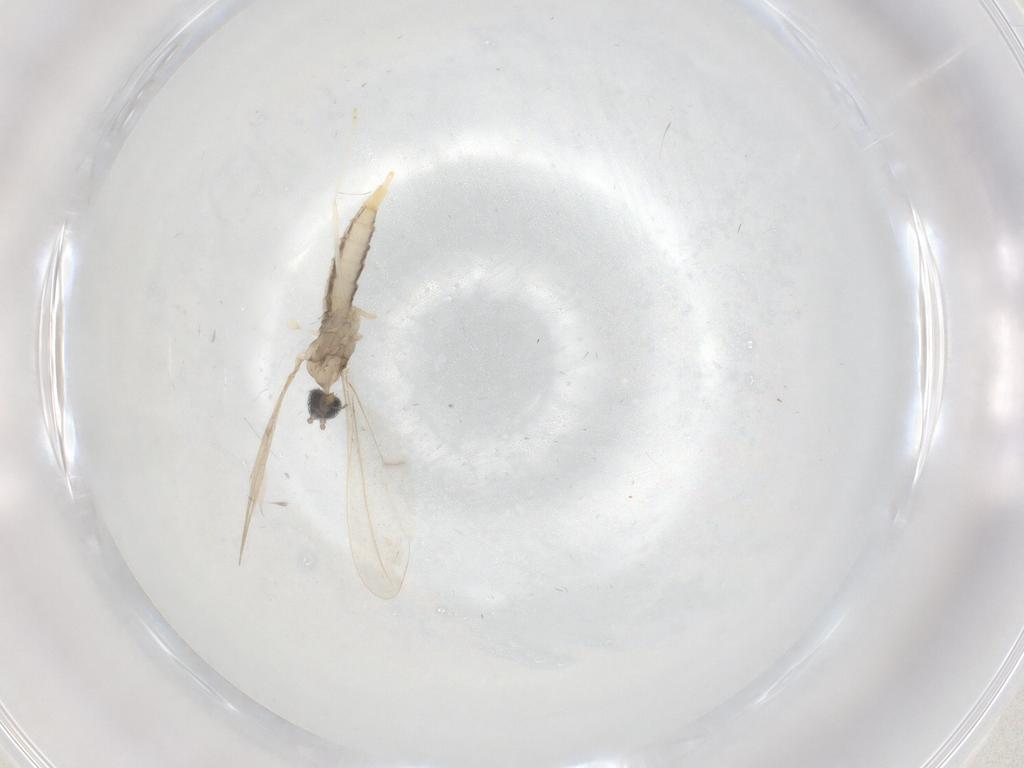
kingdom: Animalia
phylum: Arthropoda
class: Insecta
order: Diptera
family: Cecidomyiidae
